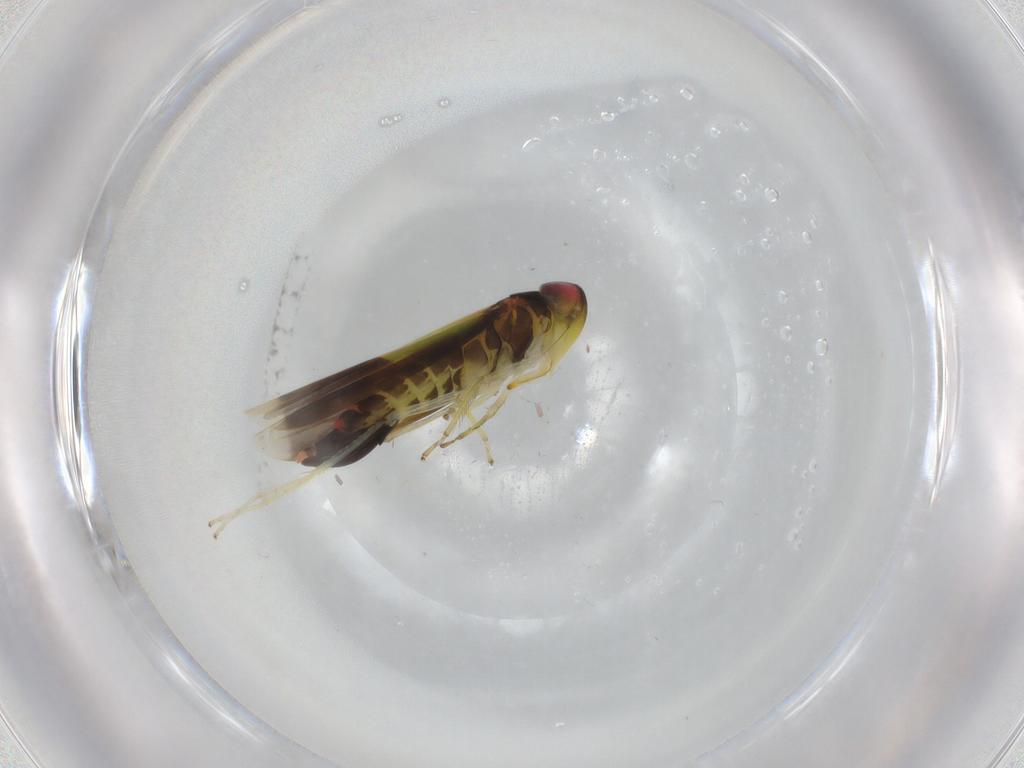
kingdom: Animalia
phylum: Arthropoda
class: Insecta
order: Hemiptera
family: Cicadellidae
